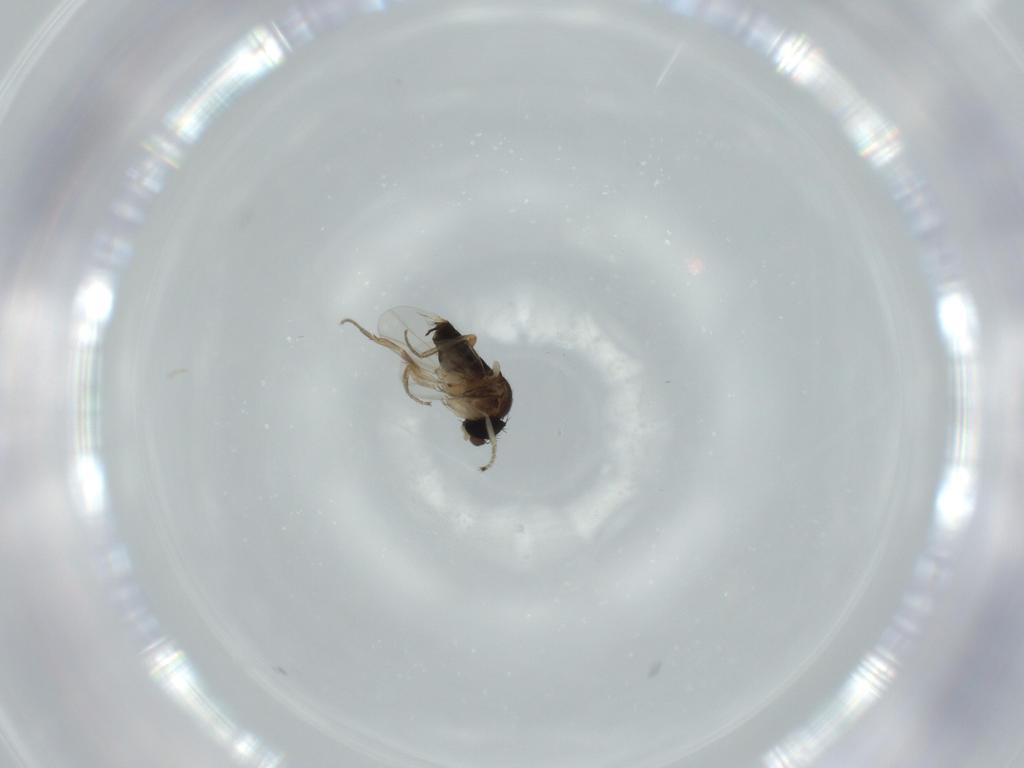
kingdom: Animalia
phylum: Arthropoda
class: Insecta
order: Diptera
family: Phoridae
